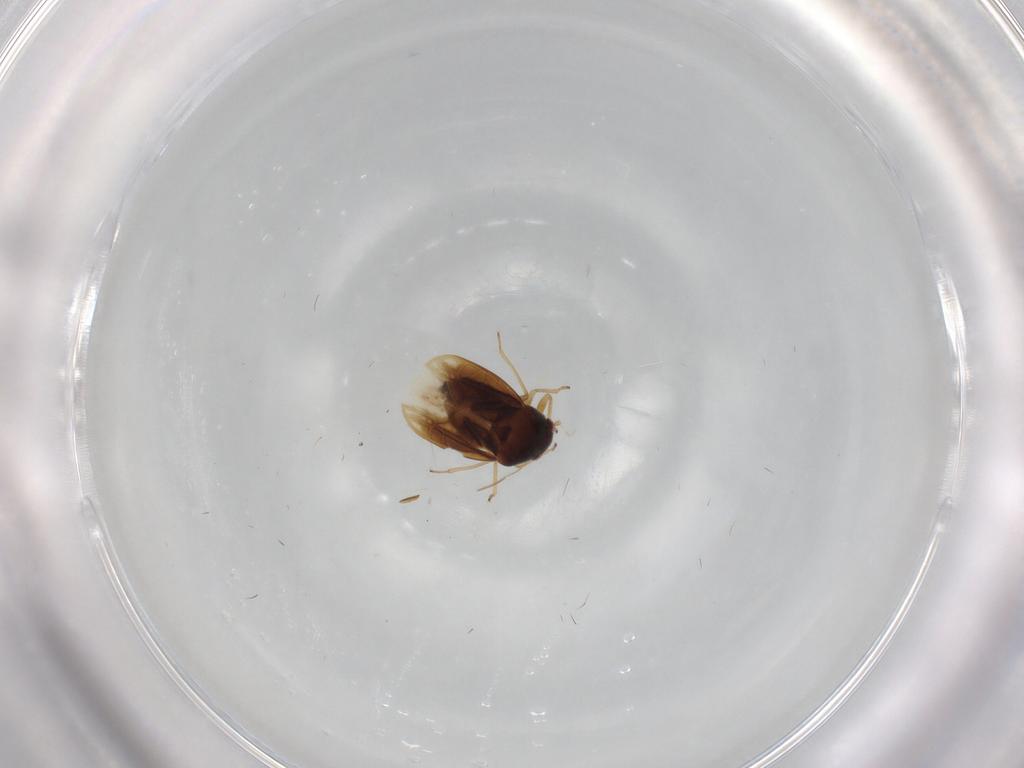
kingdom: Animalia
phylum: Arthropoda
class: Insecta
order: Hemiptera
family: Schizopteridae
